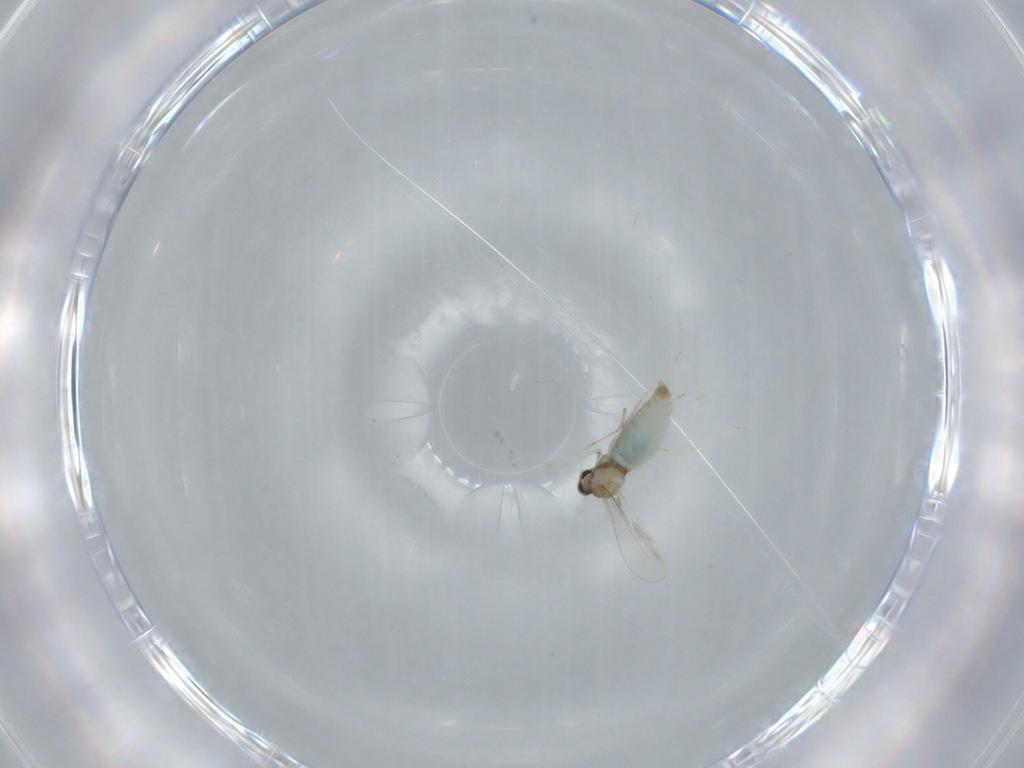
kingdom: Animalia
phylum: Arthropoda
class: Insecta
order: Diptera
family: Cecidomyiidae
